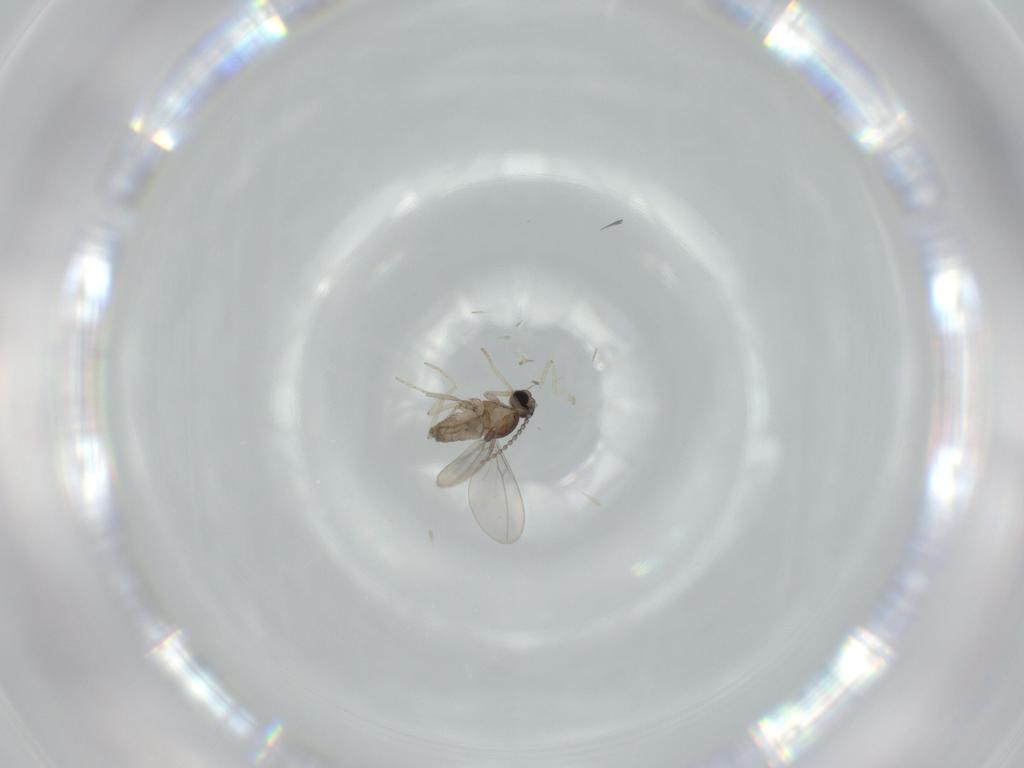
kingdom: Animalia
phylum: Arthropoda
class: Insecta
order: Diptera
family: Cecidomyiidae
